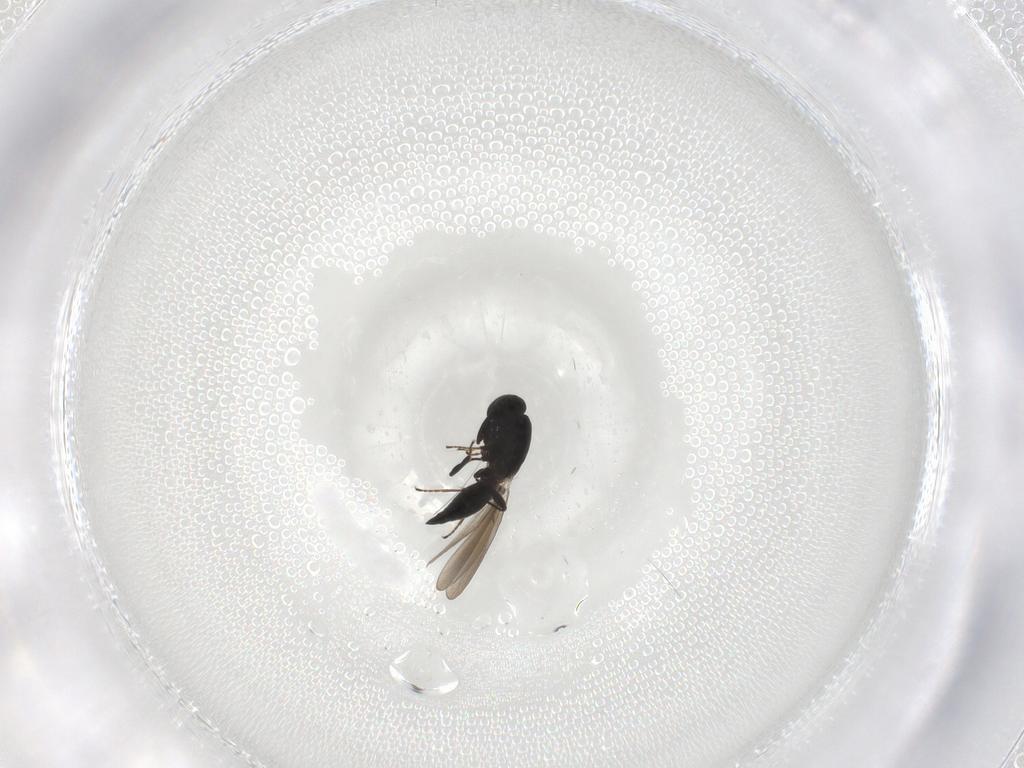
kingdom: Animalia
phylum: Arthropoda
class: Insecta
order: Hymenoptera
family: Platygastridae
